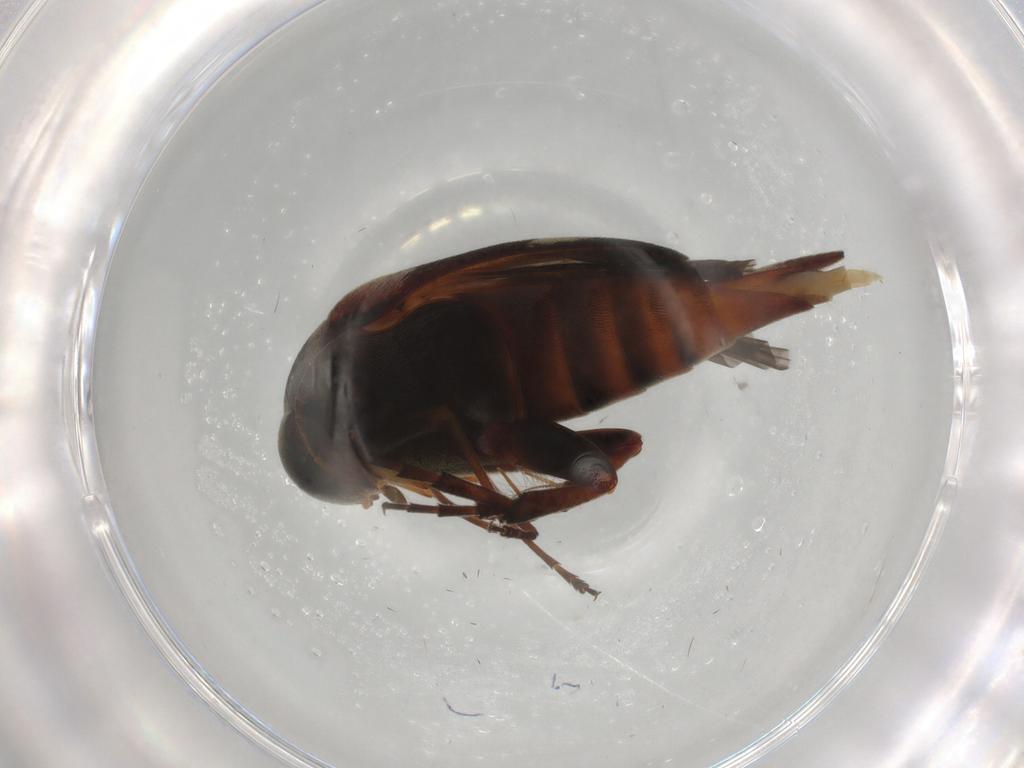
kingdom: Animalia
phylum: Arthropoda
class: Insecta
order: Coleoptera
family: Mordellidae
